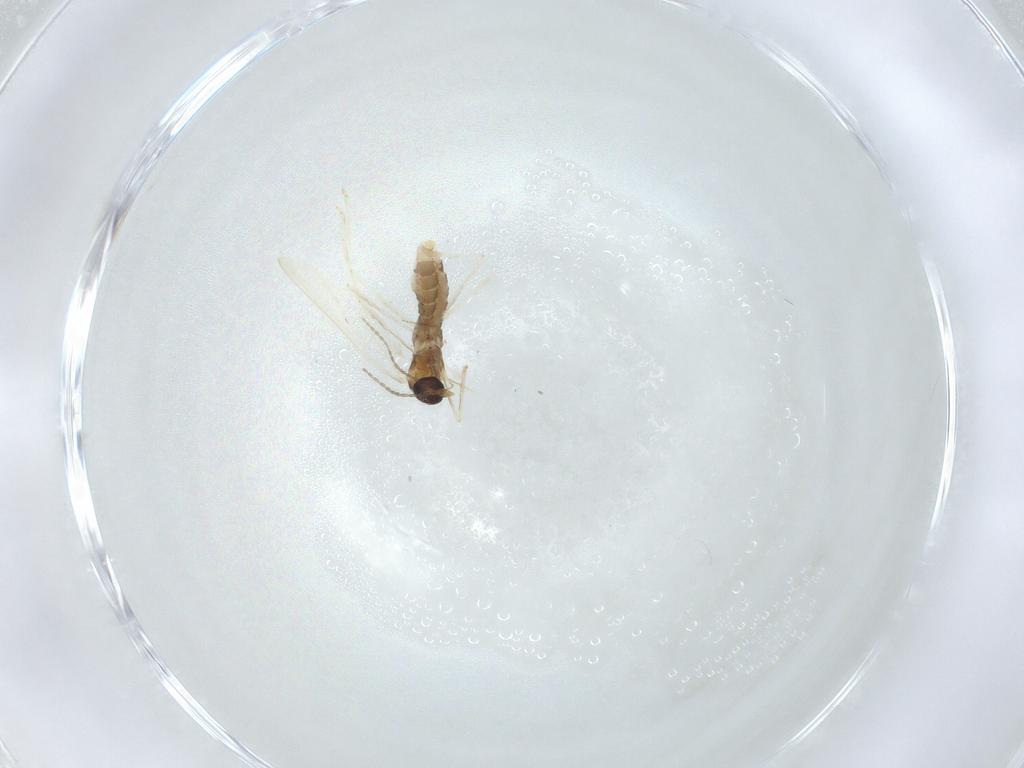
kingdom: Animalia
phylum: Arthropoda
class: Insecta
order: Diptera
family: Cecidomyiidae
